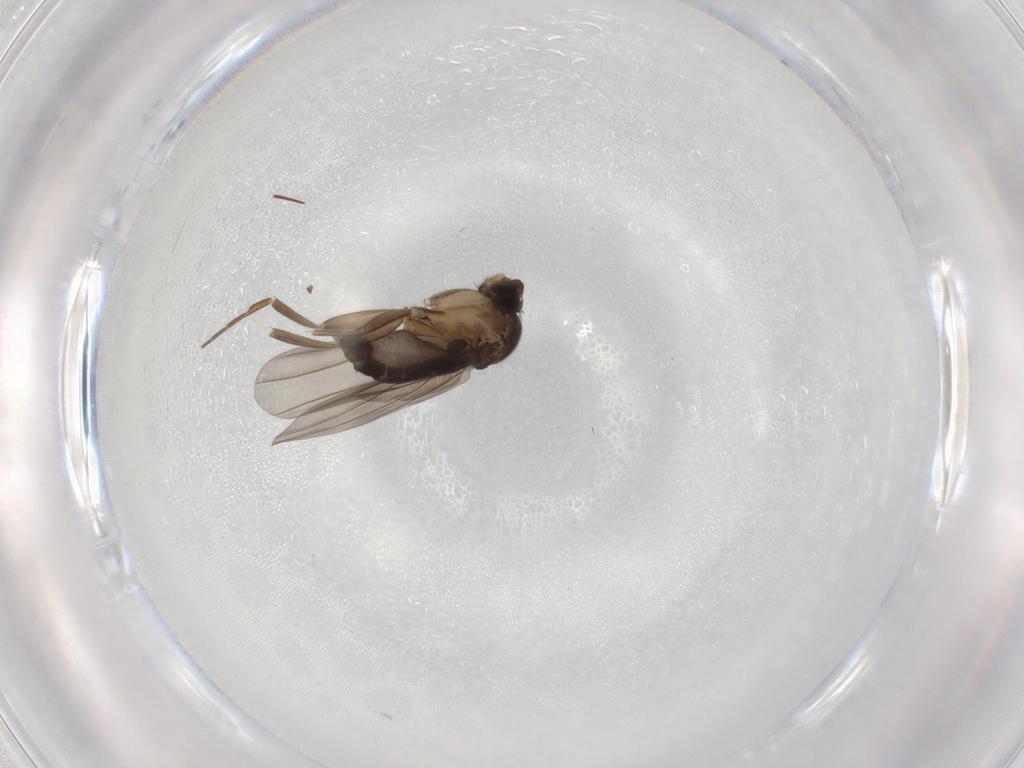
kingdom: Animalia
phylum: Arthropoda
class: Insecta
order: Diptera
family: Phoridae
